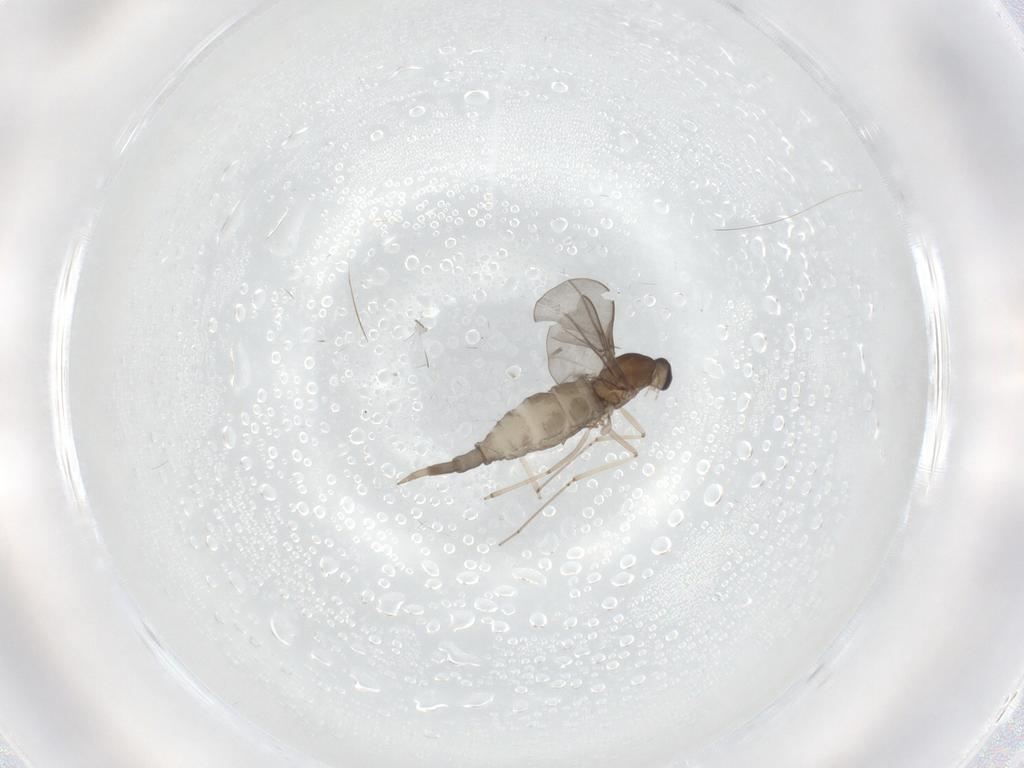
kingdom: Animalia
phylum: Arthropoda
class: Insecta
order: Diptera
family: Cecidomyiidae
